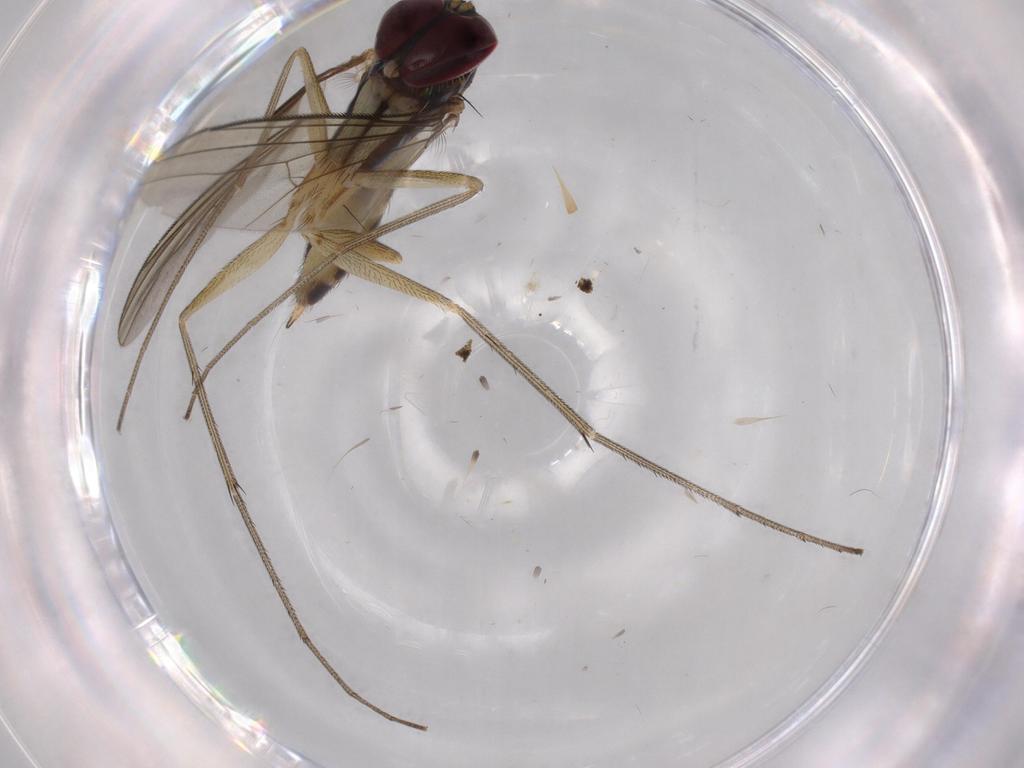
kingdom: Animalia
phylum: Arthropoda
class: Insecta
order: Diptera
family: Dolichopodidae
